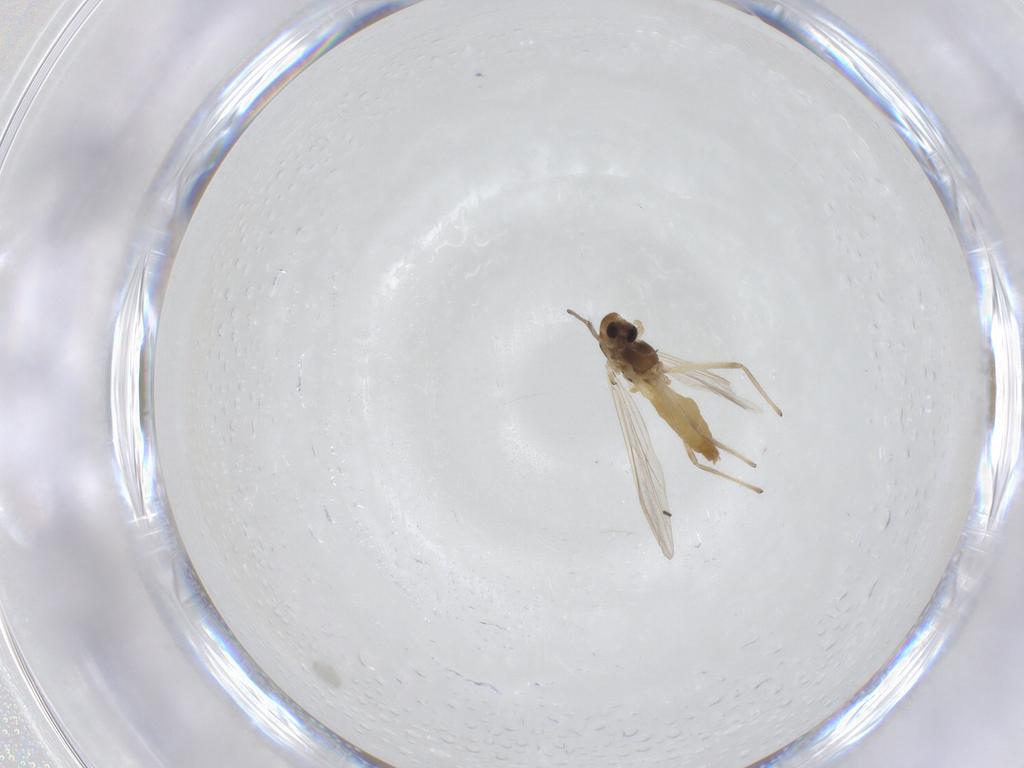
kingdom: Animalia
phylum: Arthropoda
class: Insecta
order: Diptera
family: Chironomidae
